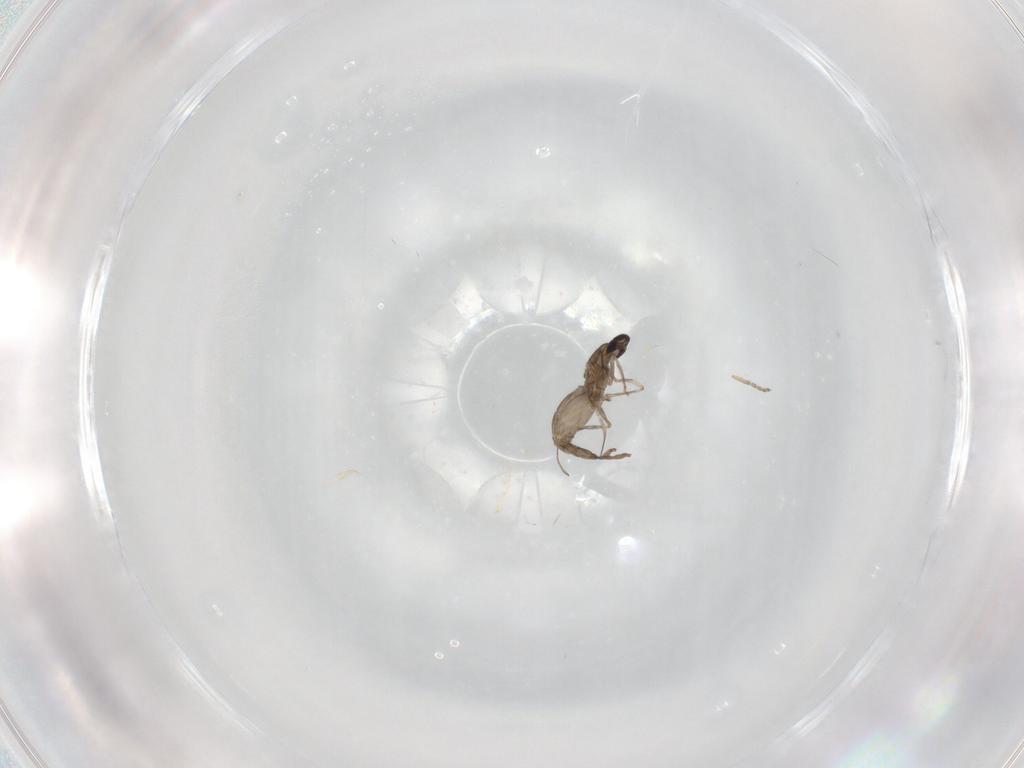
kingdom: Animalia
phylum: Arthropoda
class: Insecta
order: Diptera
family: Cecidomyiidae
